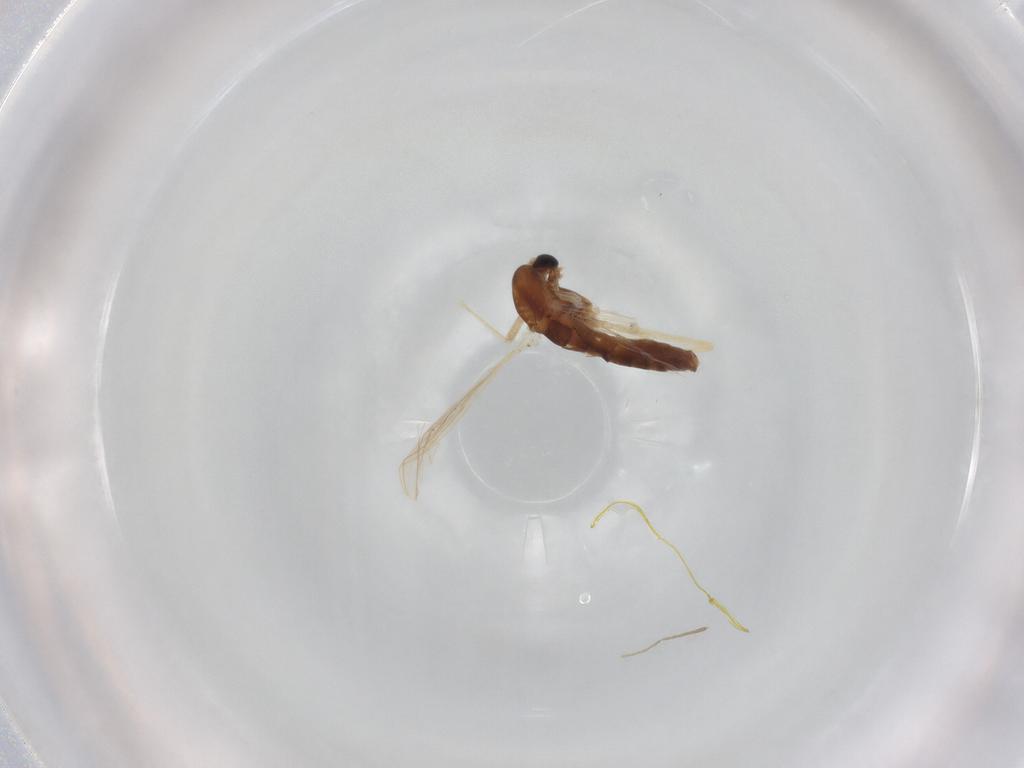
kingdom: Animalia
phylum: Arthropoda
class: Insecta
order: Diptera
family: Chironomidae
